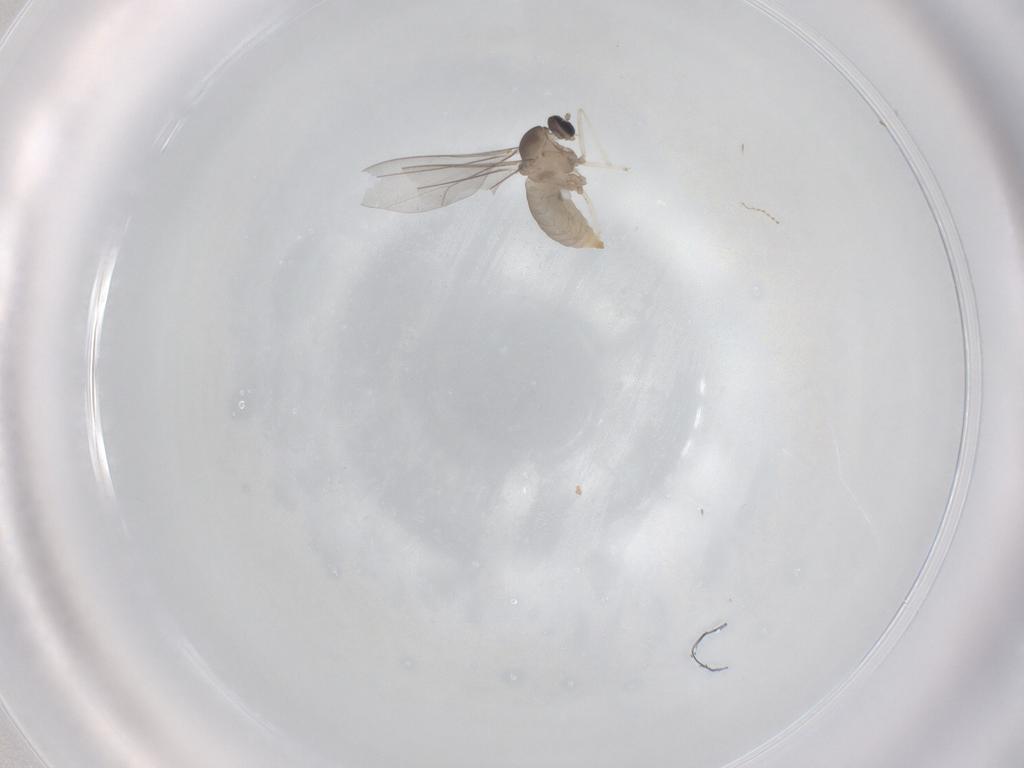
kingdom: Animalia
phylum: Arthropoda
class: Insecta
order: Diptera
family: Cecidomyiidae
